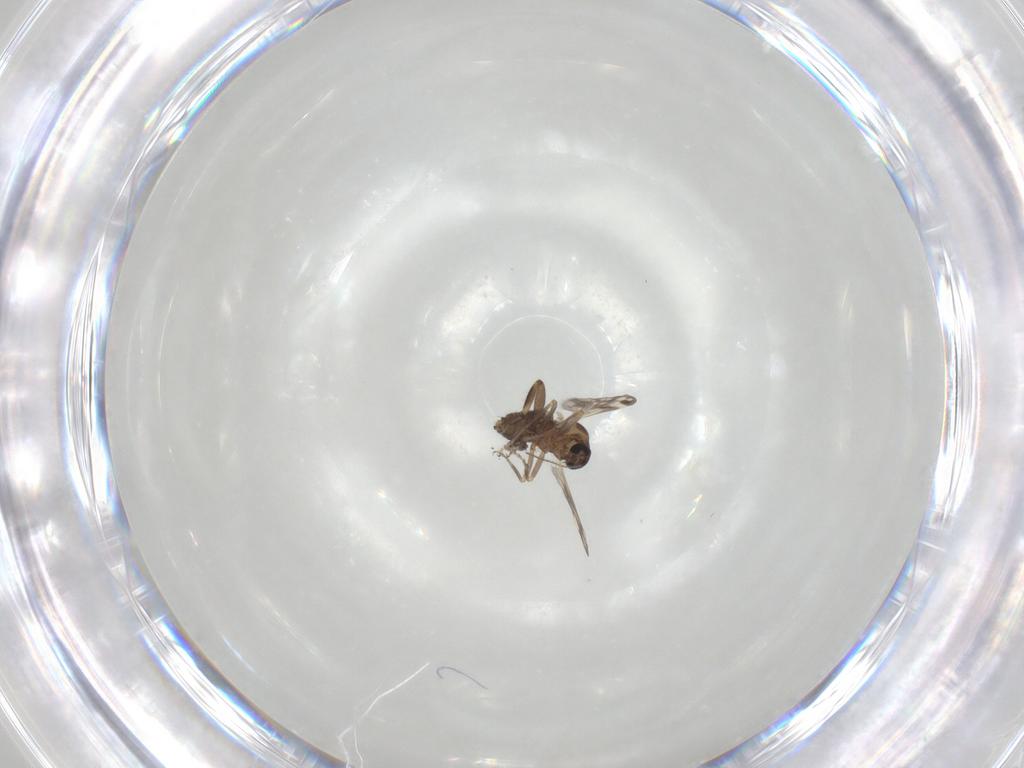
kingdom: Animalia
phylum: Arthropoda
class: Insecta
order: Diptera
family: Ceratopogonidae
